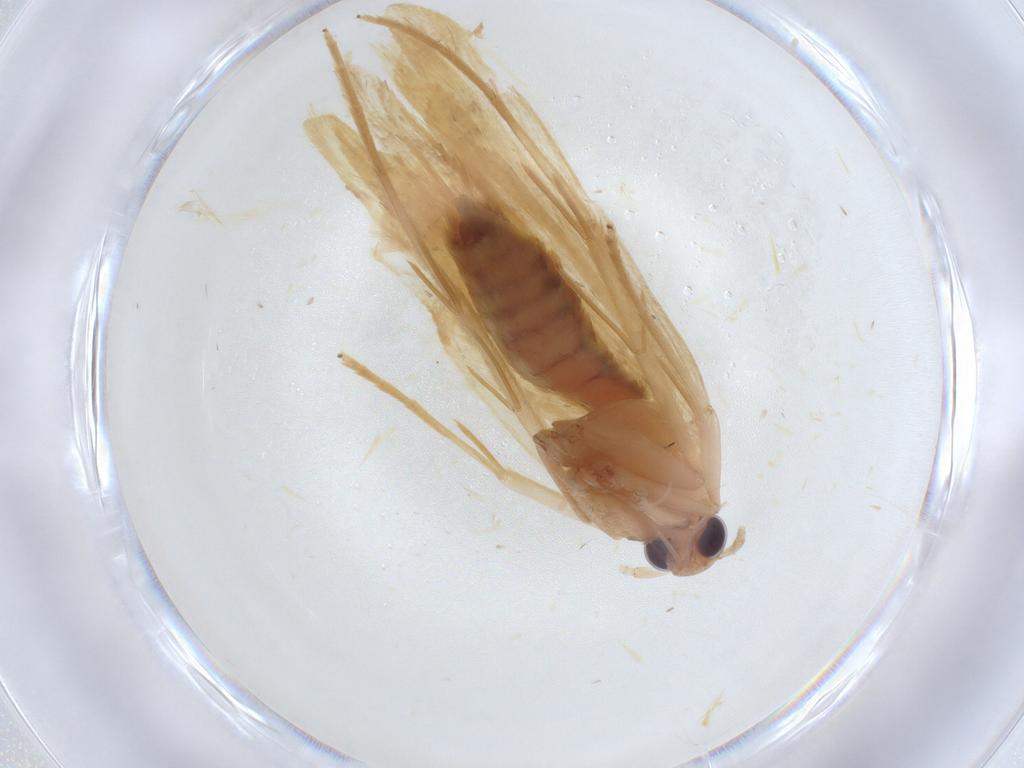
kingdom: Animalia
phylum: Arthropoda
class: Insecta
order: Lepidoptera
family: Lecithoceridae
